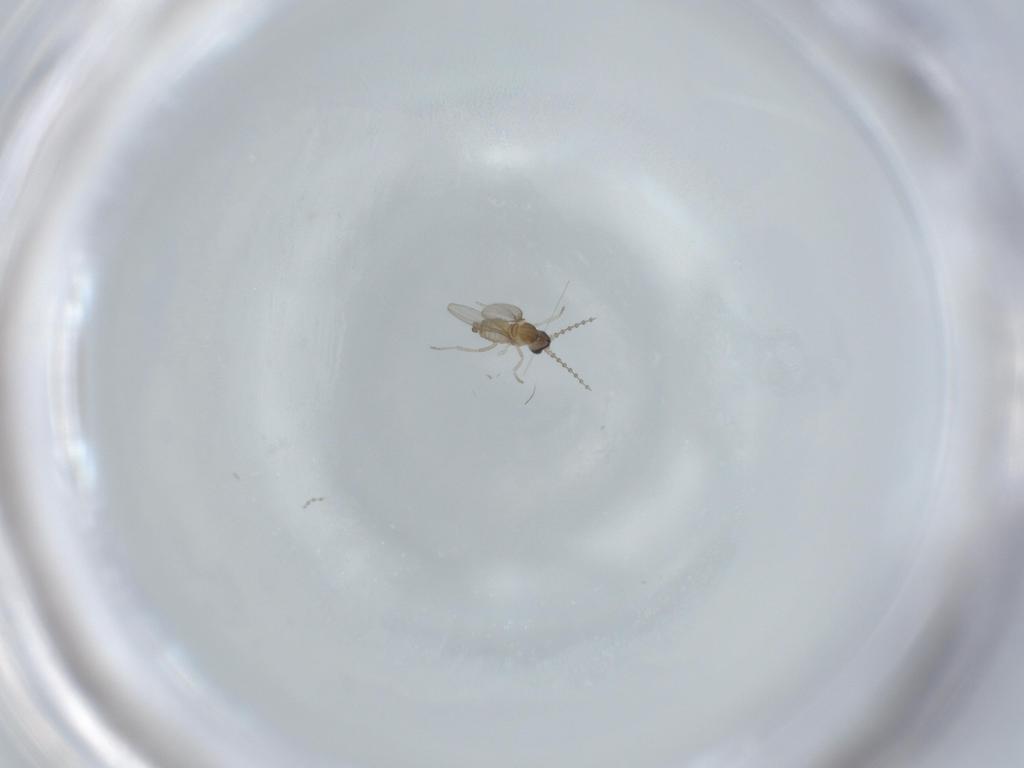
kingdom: Animalia
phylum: Arthropoda
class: Insecta
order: Diptera
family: Cecidomyiidae
